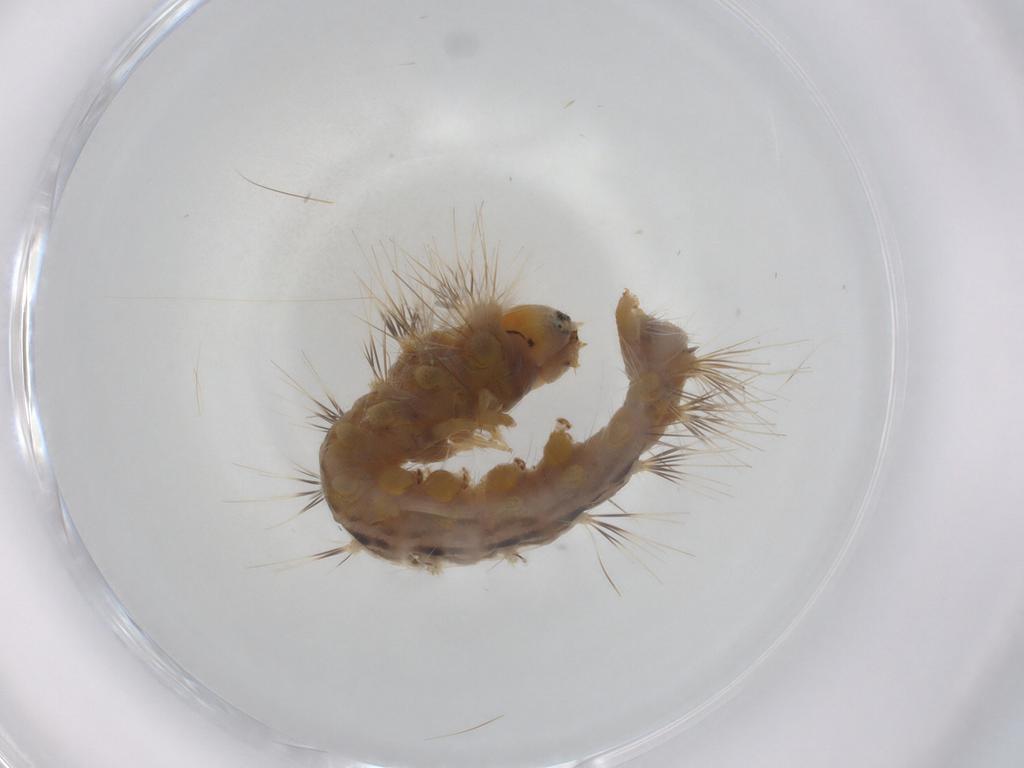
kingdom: Animalia
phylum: Arthropoda
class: Insecta
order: Lepidoptera
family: Lasiocampidae
